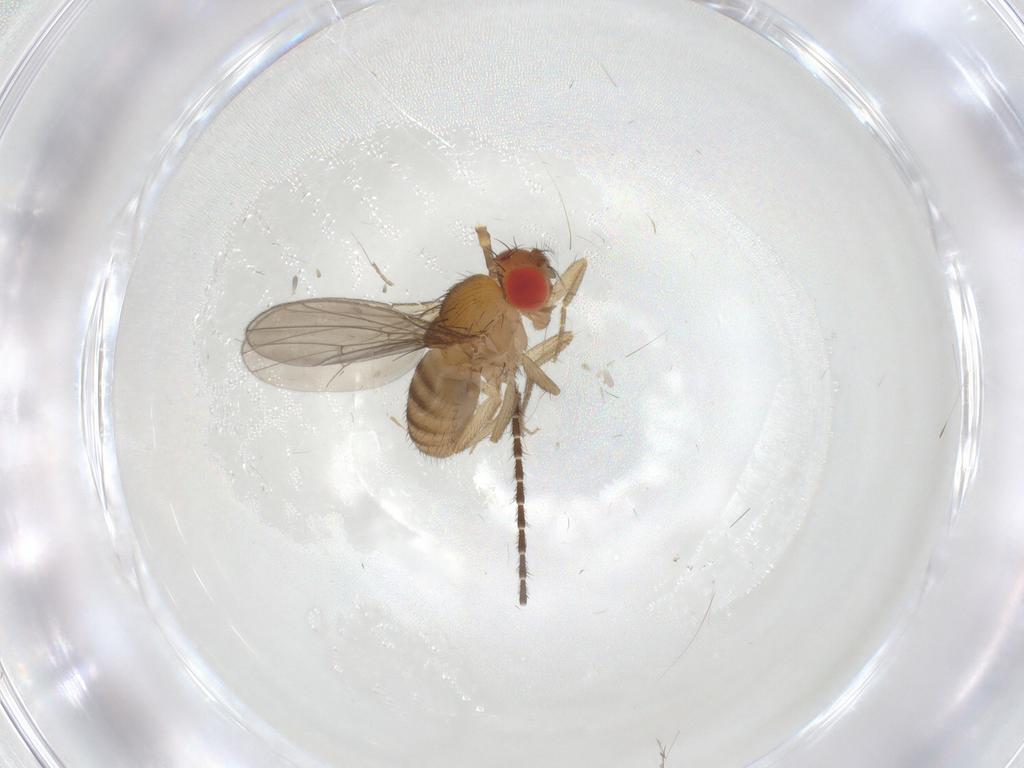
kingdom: Animalia
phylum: Arthropoda
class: Insecta
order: Diptera
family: Drosophilidae
